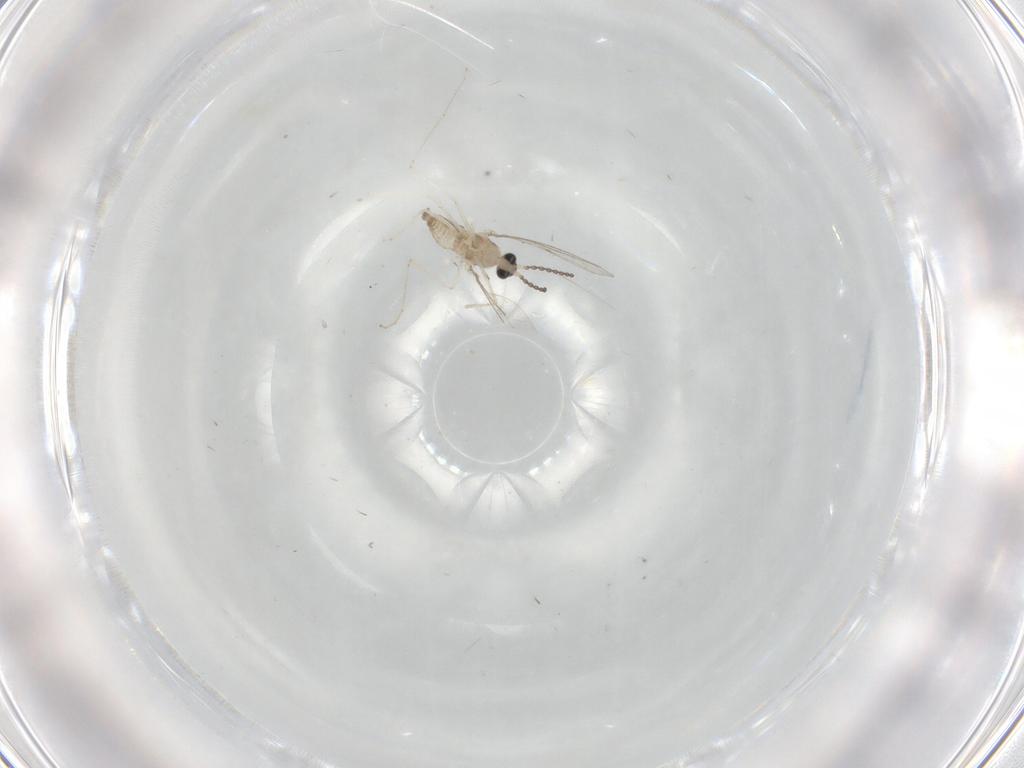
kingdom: Animalia
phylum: Arthropoda
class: Insecta
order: Diptera
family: Cecidomyiidae
